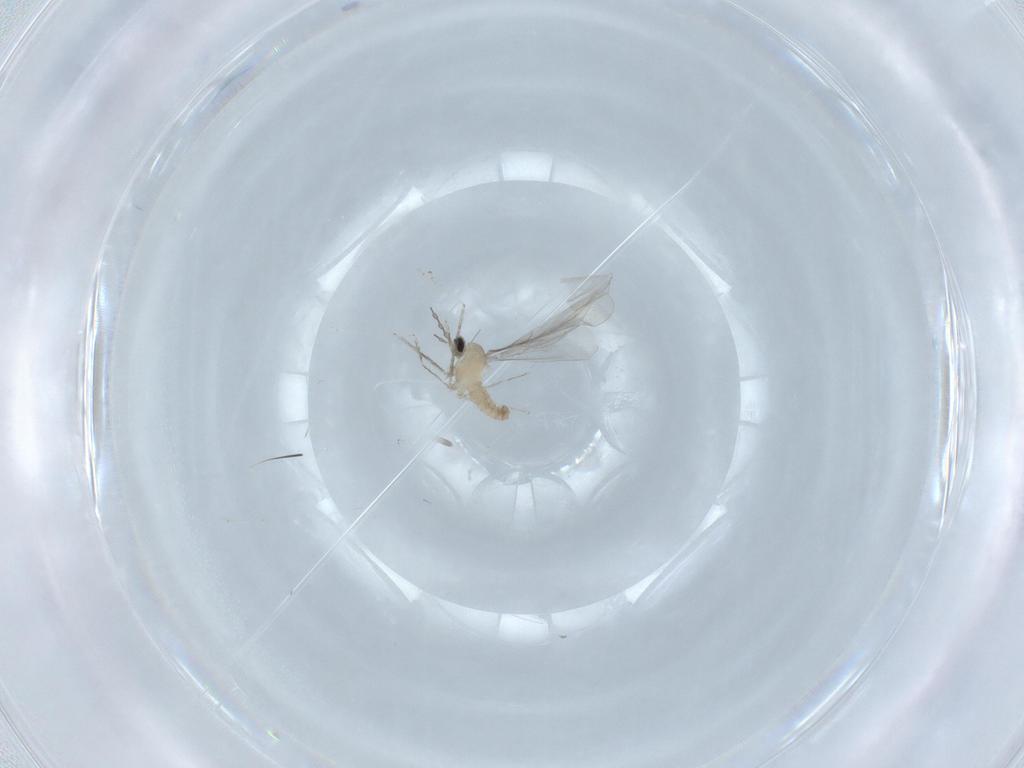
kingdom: Animalia
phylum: Arthropoda
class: Insecta
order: Diptera
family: Cecidomyiidae
